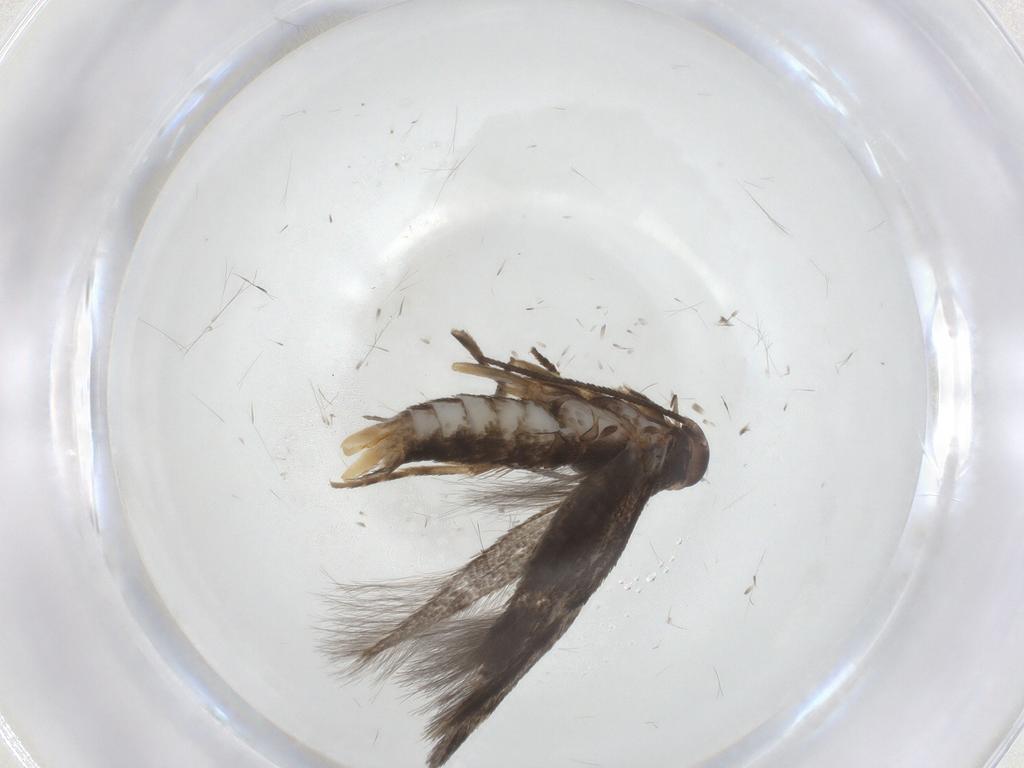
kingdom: Animalia
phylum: Arthropoda
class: Insecta
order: Lepidoptera
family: Elachistidae
